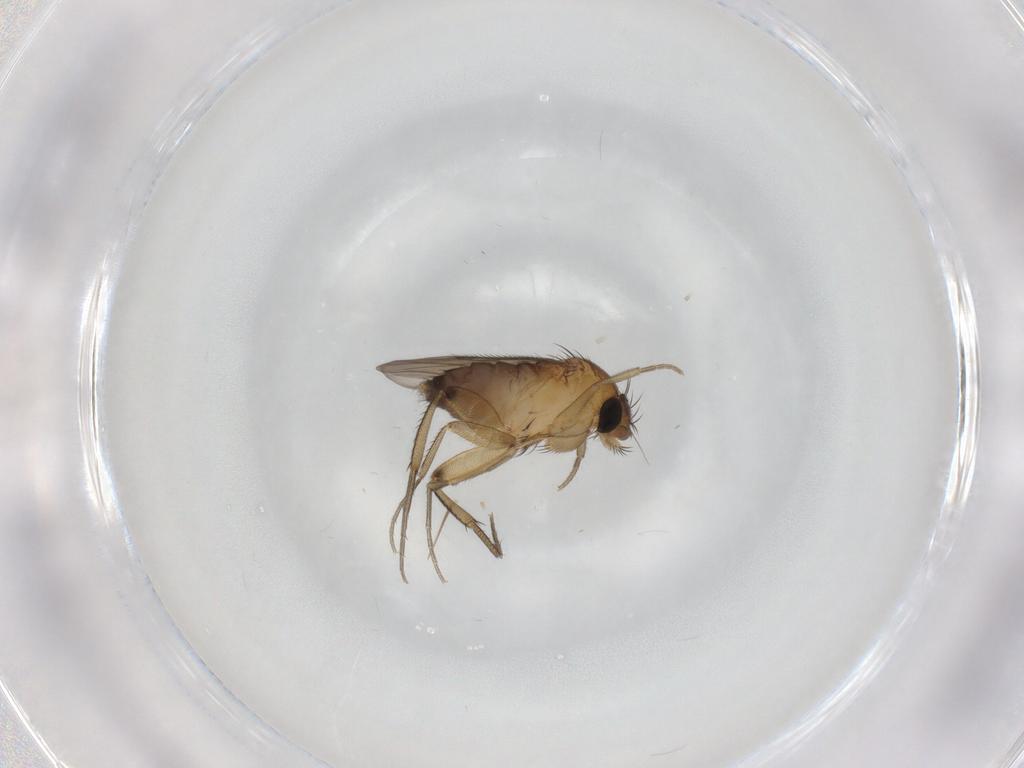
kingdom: Animalia
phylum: Arthropoda
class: Insecta
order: Diptera
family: Phoridae
